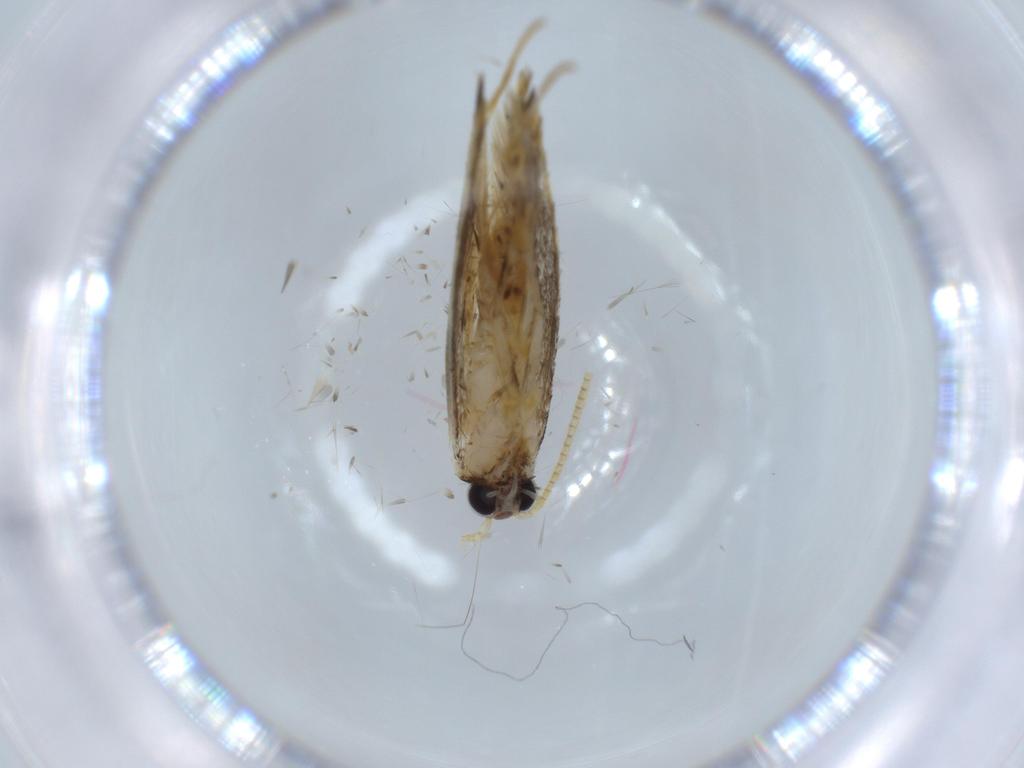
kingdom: Animalia
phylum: Arthropoda
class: Insecta
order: Lepidoptera
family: Tineidae
